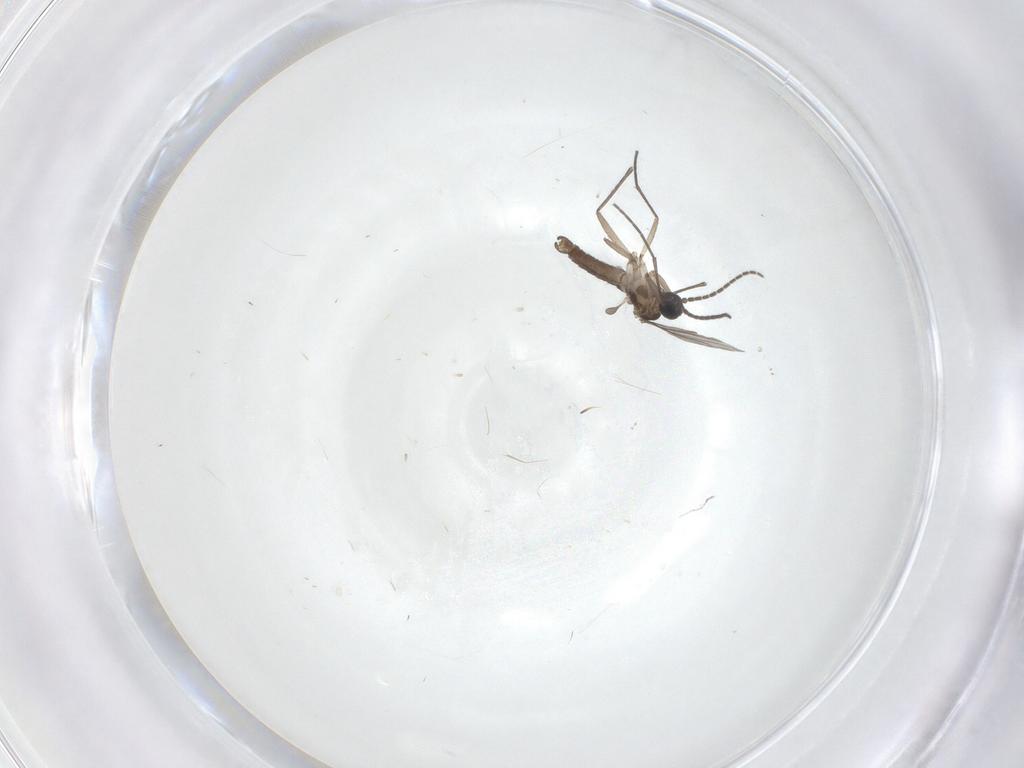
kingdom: Animalia
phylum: Arthropoda
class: Insecta
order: Diptera
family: Sciaridae
